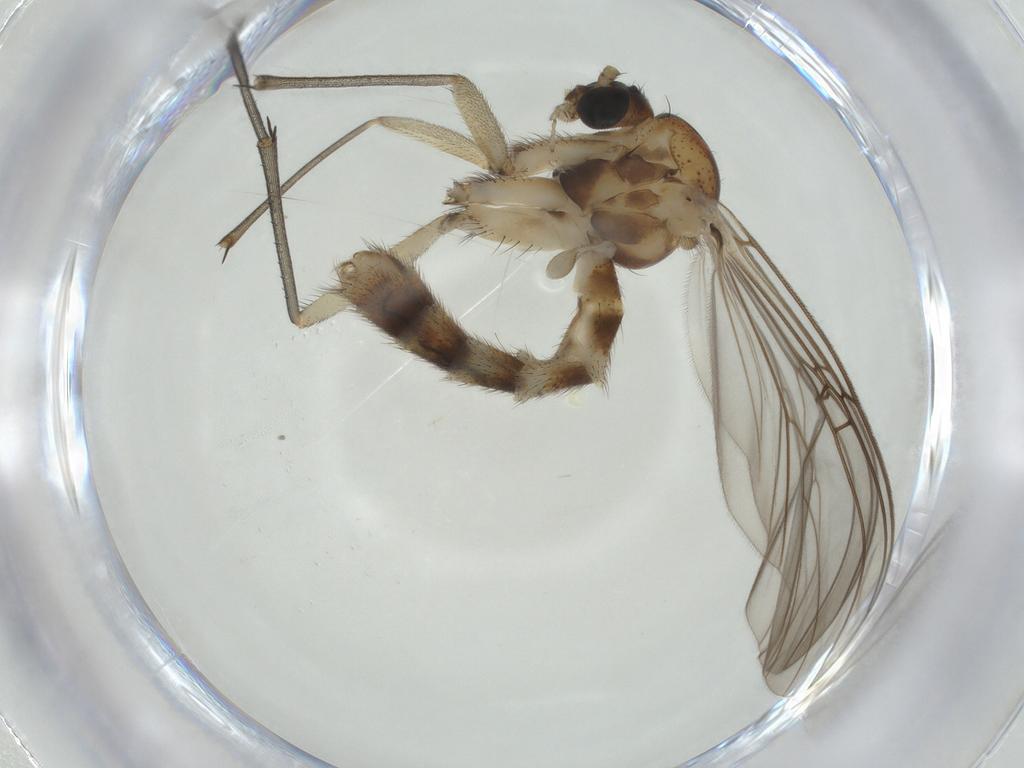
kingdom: Animalia
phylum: Arthropoda
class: Insecta
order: Diptera
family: Cecidomyiidae
